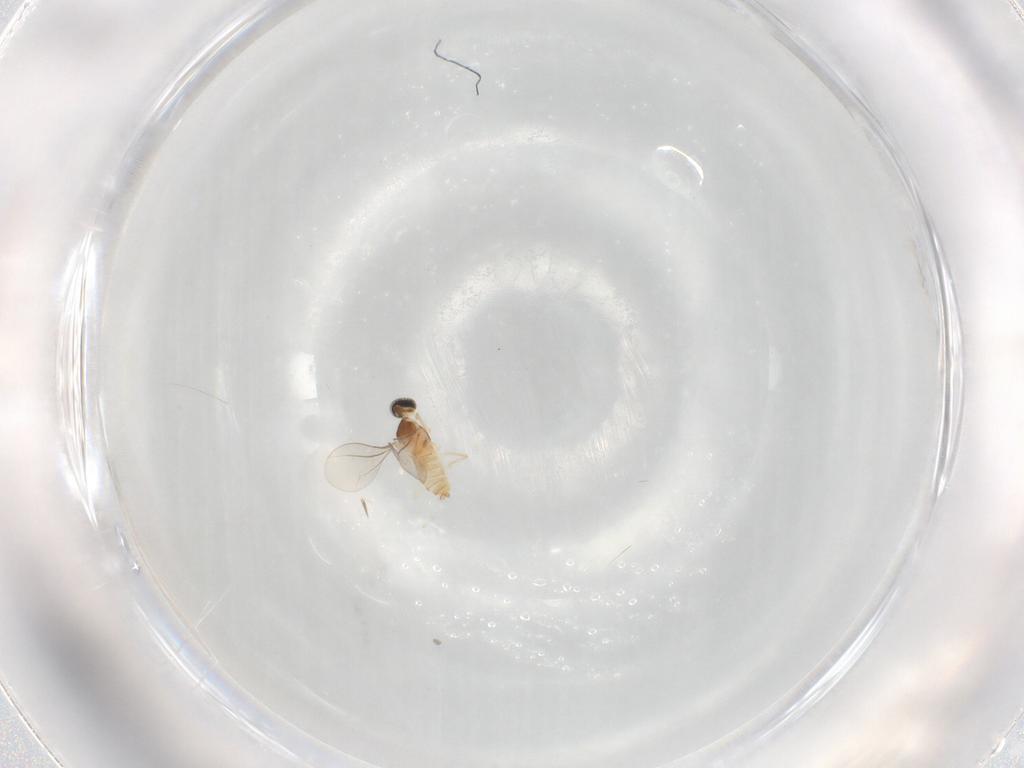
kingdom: Animalia
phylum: Arthropoda
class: Insecta
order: Diptera
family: Cecidomyiidae
